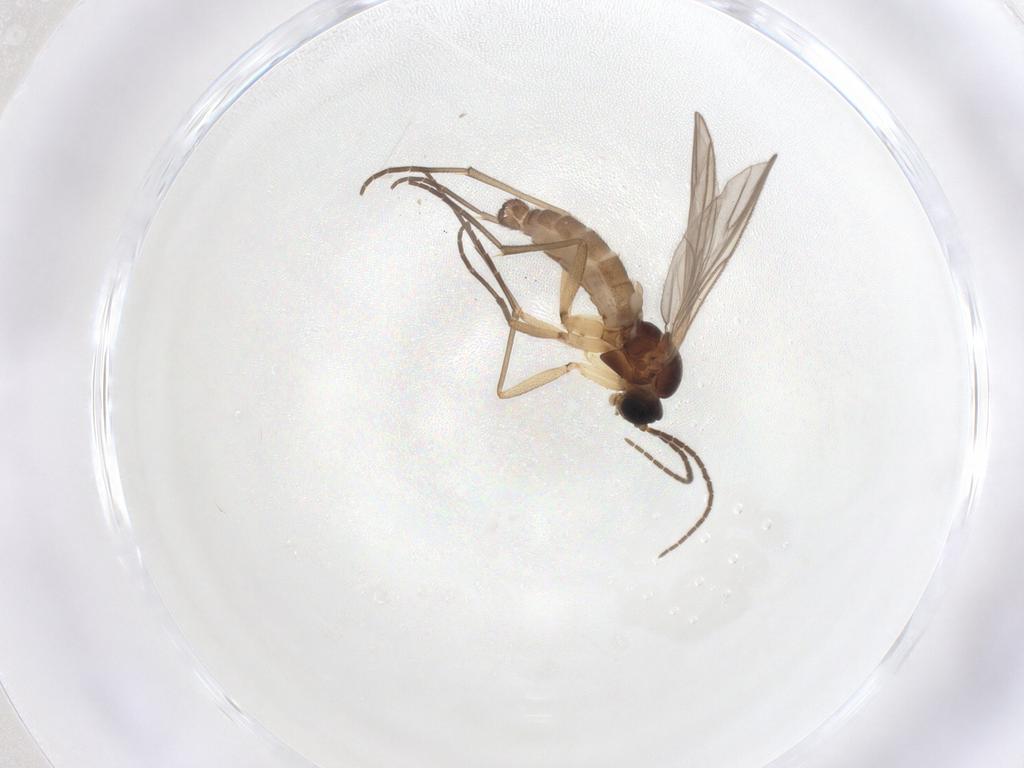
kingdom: Animalia
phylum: Arthropoda
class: Insecta
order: Diptera
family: Sciaridae
